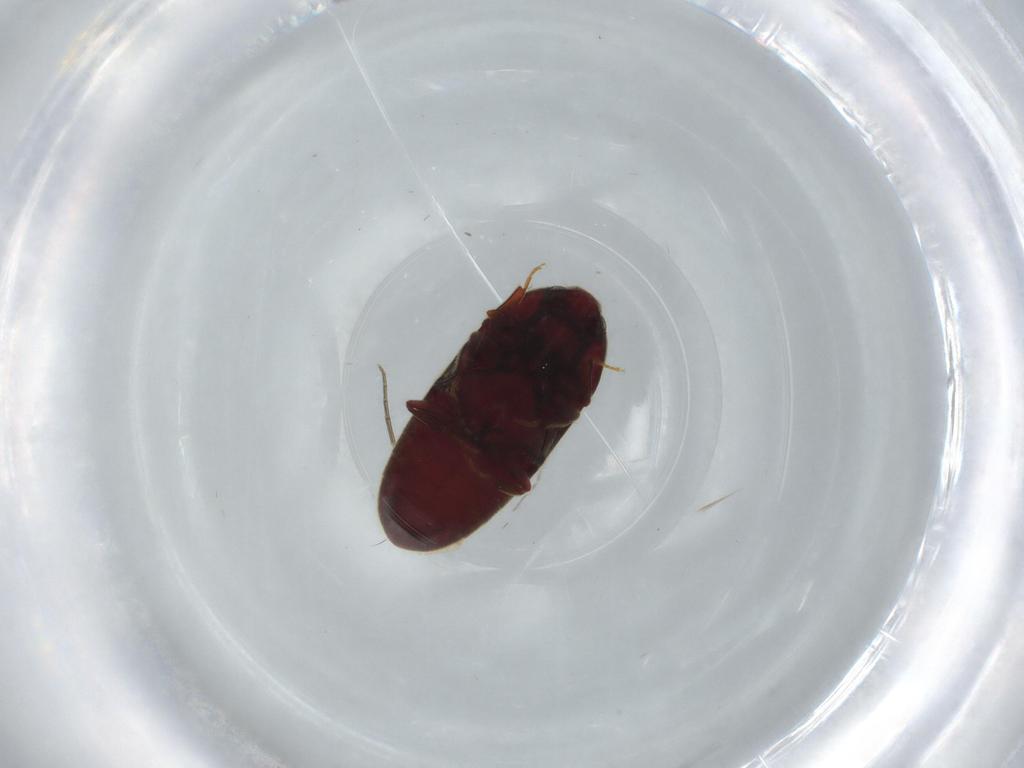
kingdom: Animalia
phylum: Arthropoda
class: Insecta
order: Coleoptera
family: Throscidae
